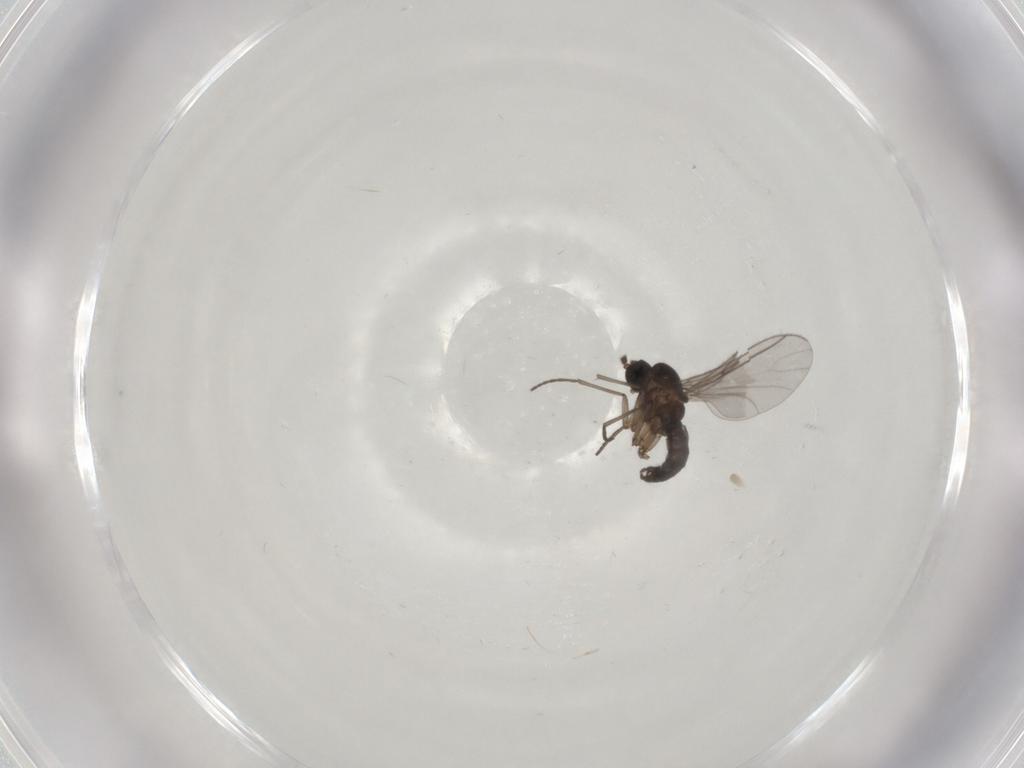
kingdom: Animalia
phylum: Arthropoda
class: Insecta
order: Diptera
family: Cecidomyiidae
